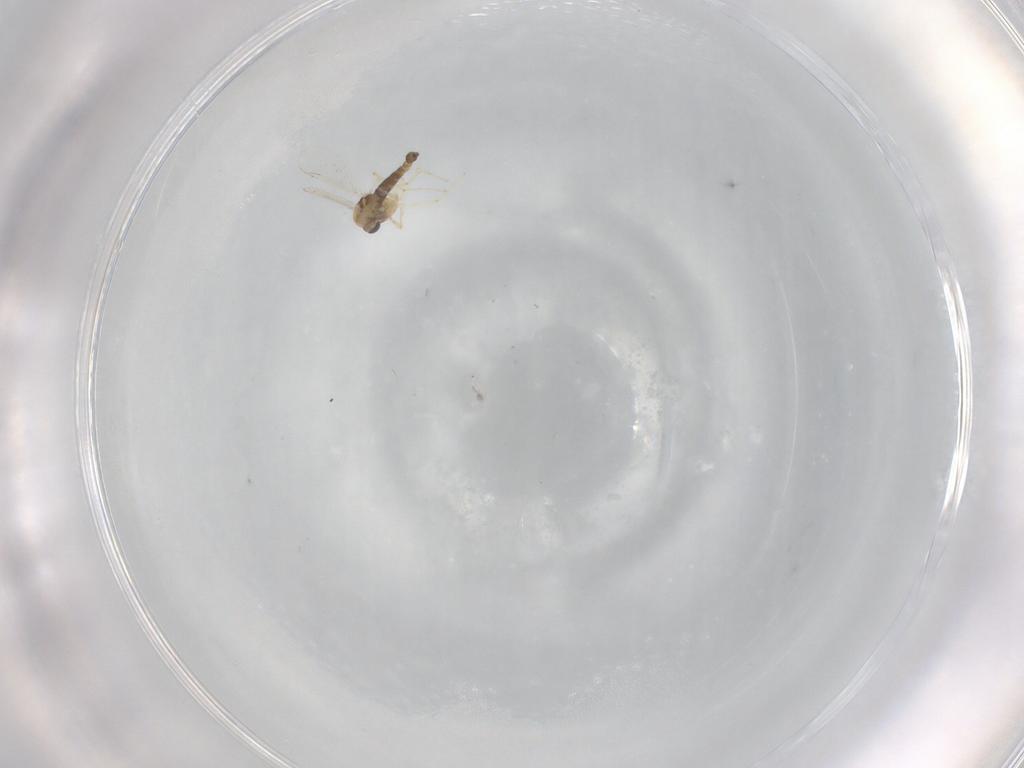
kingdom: Animalia
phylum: Arthropoda
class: Insecta
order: Diptera
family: Chironomidae
